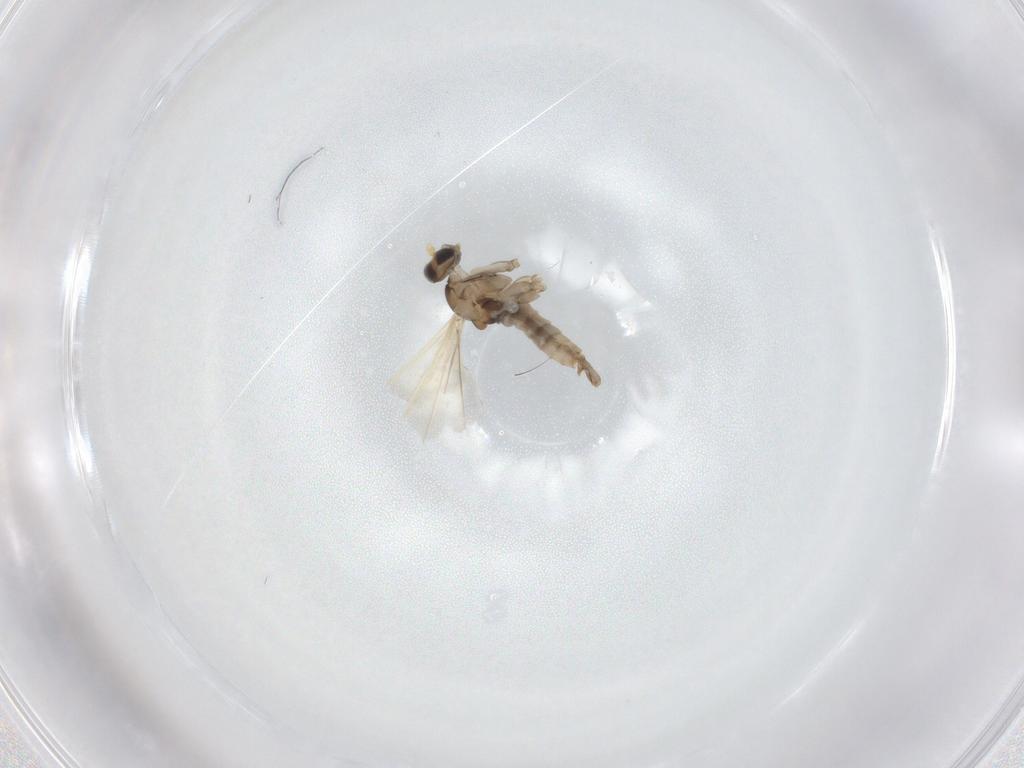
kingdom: Animalia
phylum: Arthropoda
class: Insecta
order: Diptera
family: Cecidomyiidae
